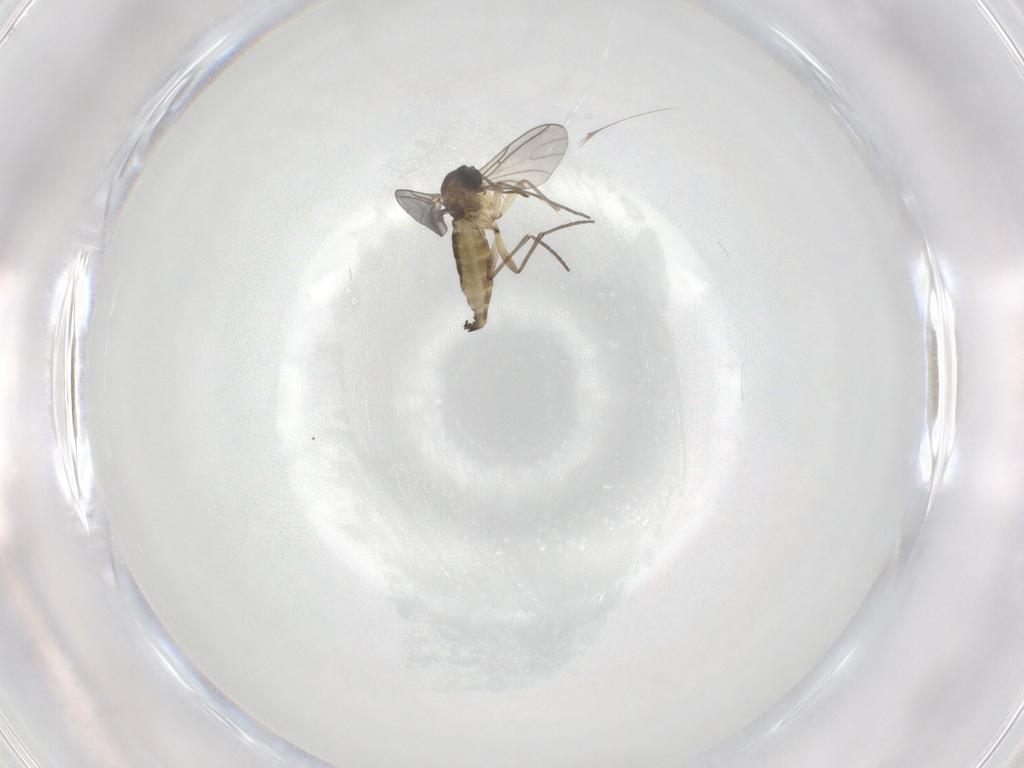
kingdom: Animalia
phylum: Arthropoda
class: Insecta
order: Diptera
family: Sciaridae
